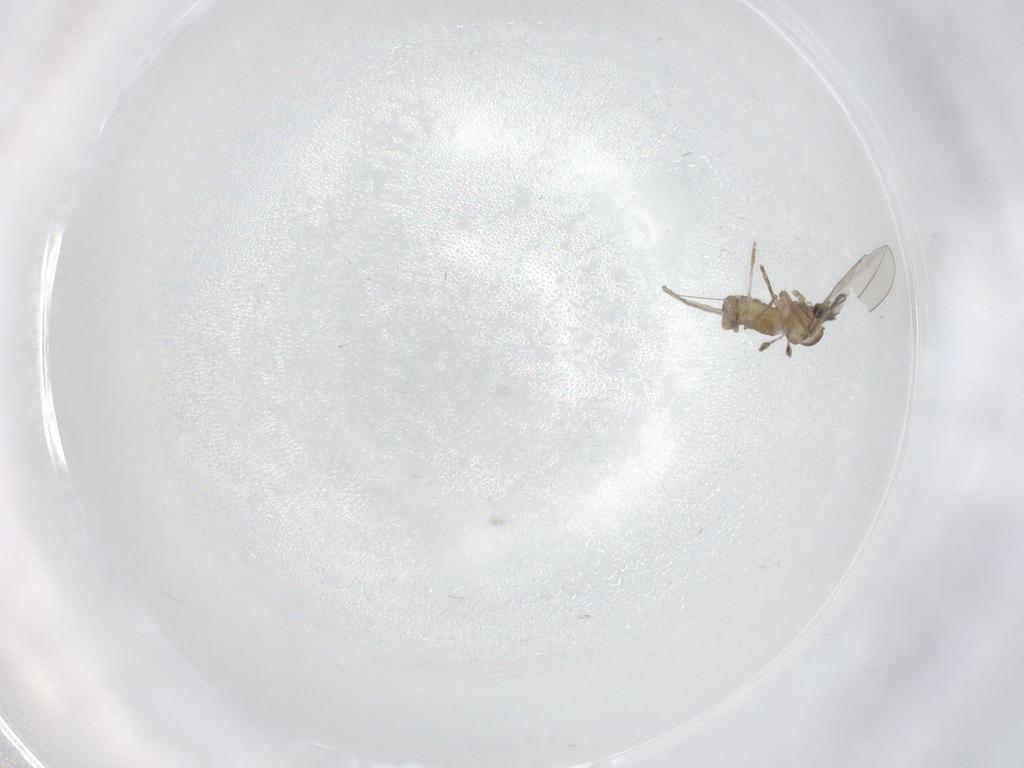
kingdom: Animalia
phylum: Arthropoda
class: Insecta
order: Diptera
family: Cecidomyiidae
